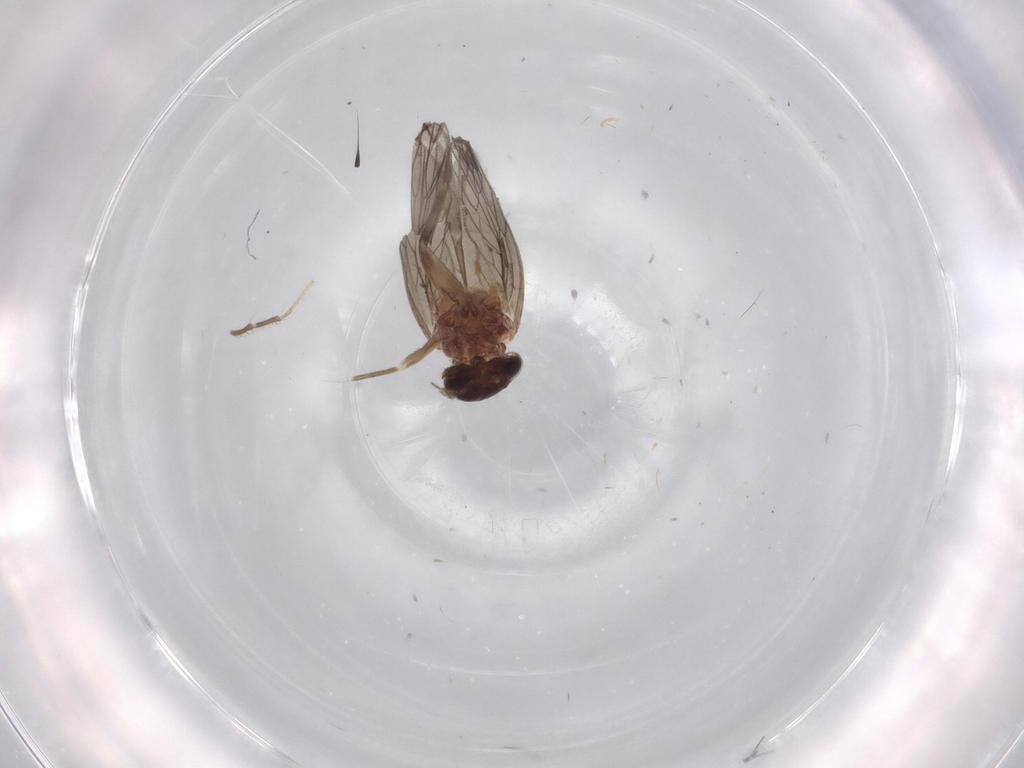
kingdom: Animalia
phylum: Arthropoda
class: Insecta
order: Psocodea
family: Lepidopsocidae
